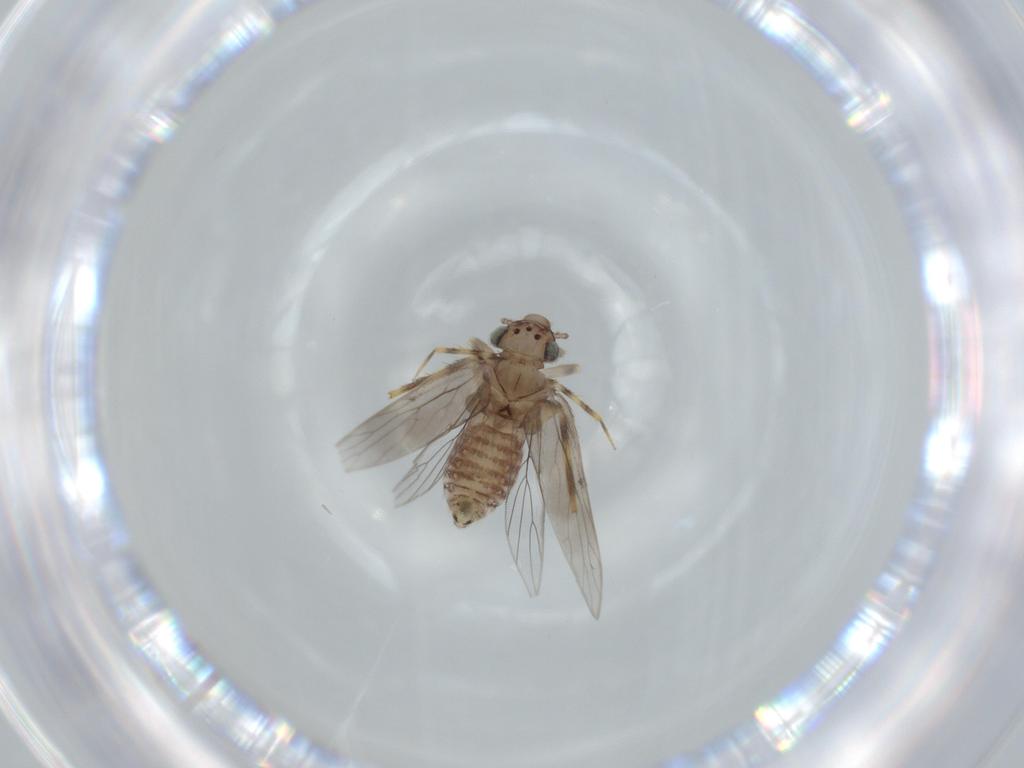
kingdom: Animalia
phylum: Arthropoda
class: Insecta
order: Psocodea
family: Lepidopsocidae
